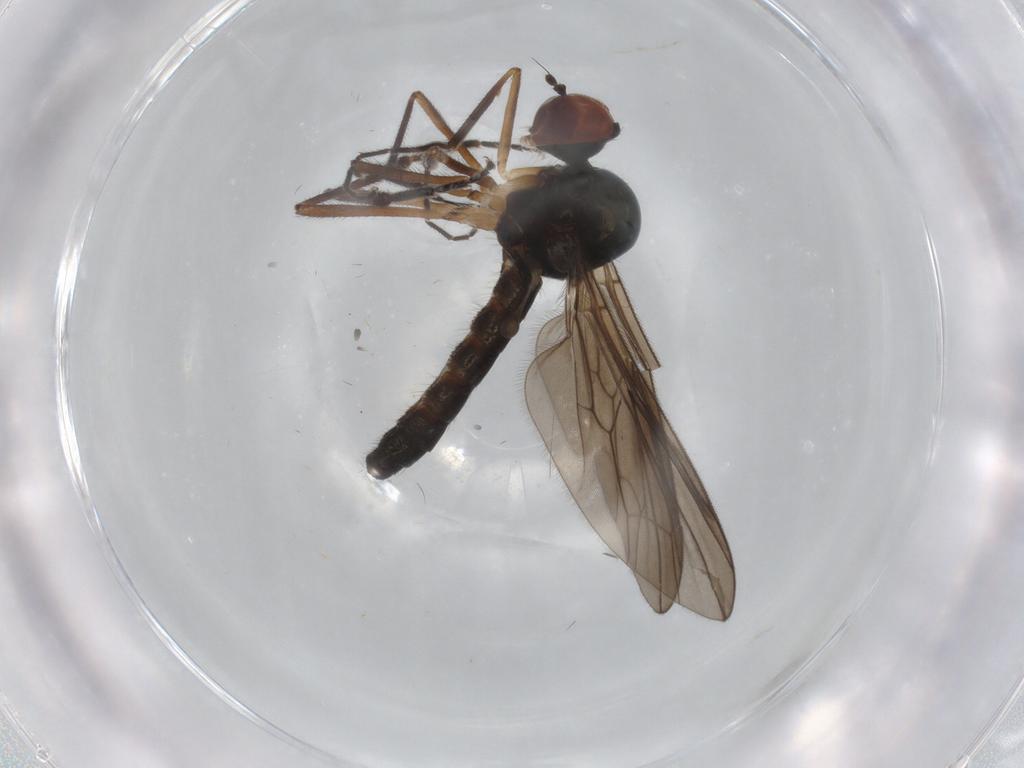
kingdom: Animalia
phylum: Arthropoda
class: Insecta
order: Diptera
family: Hybotidae
